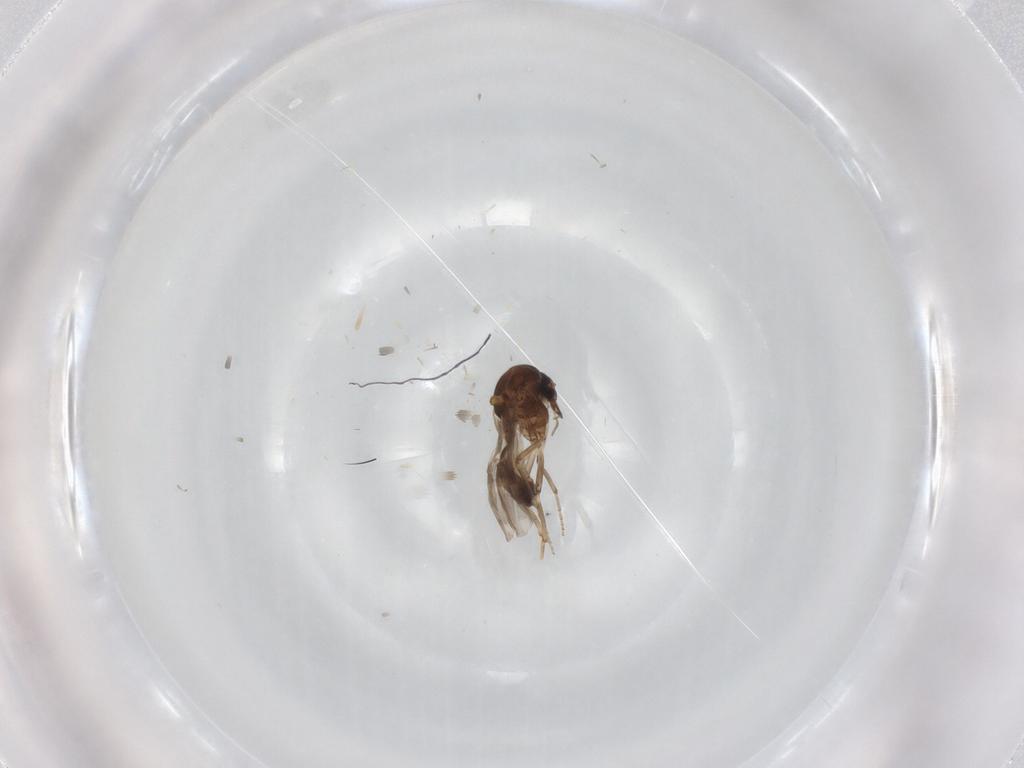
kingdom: Animalia
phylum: Arthropoda
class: Insecta
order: Diptera
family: Ceratopogonidae
